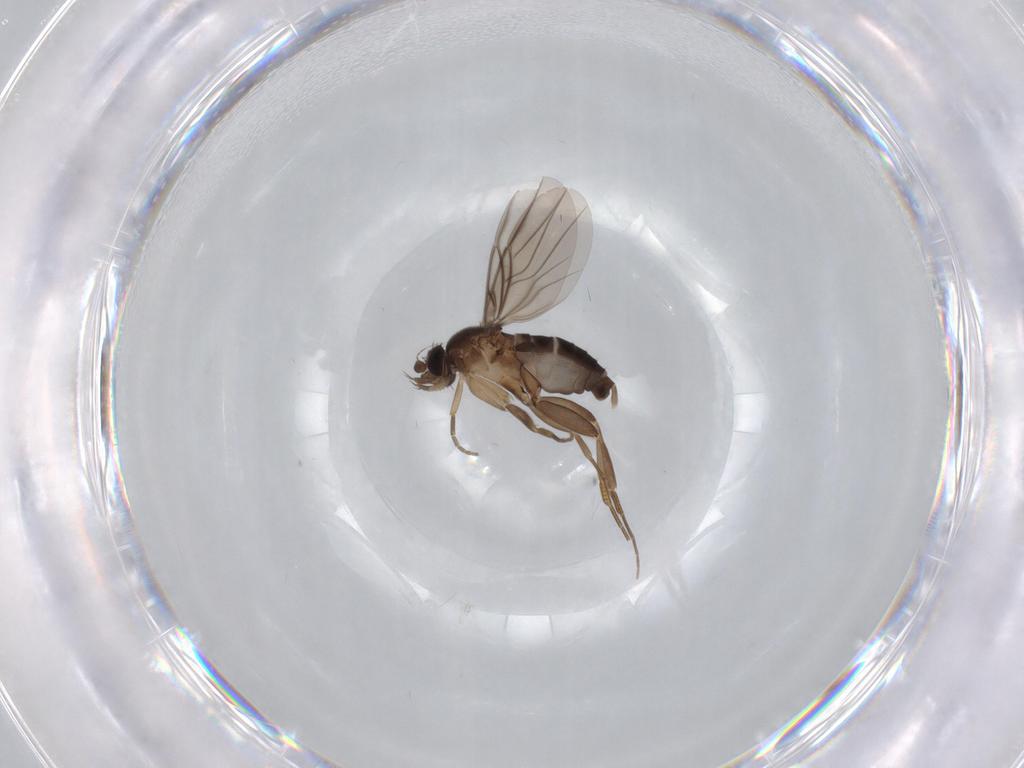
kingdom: Animalia
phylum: Arthropoda
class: Insecta
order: Diptera
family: Phoridae
